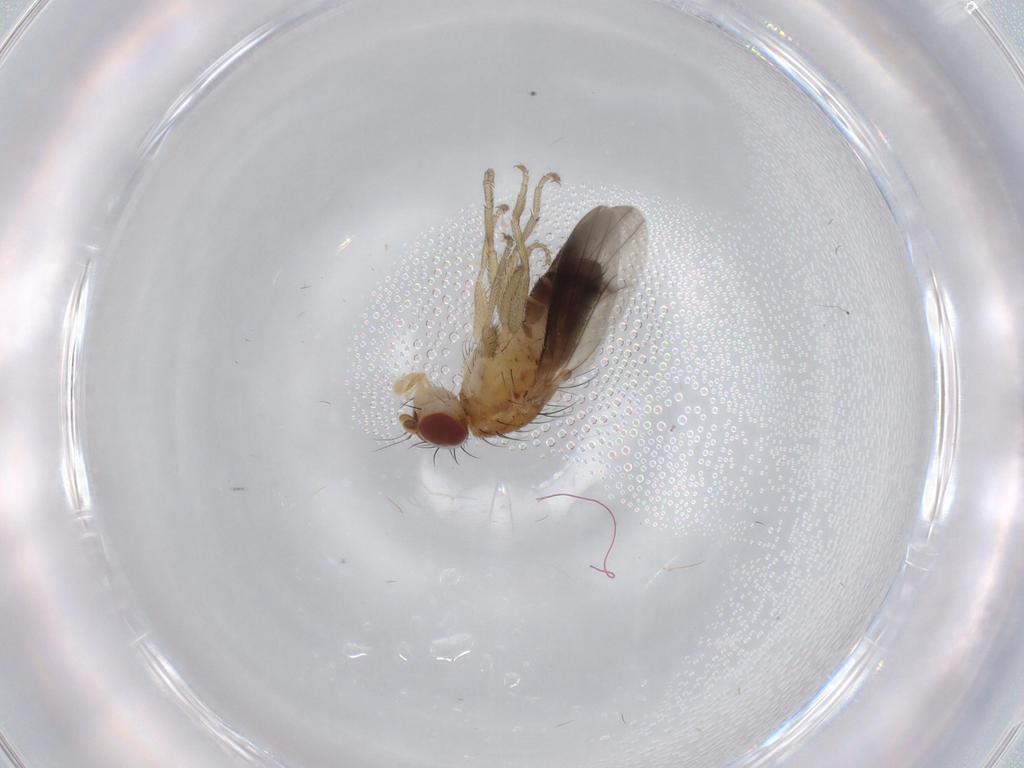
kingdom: Animalia
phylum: Arthropoda
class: Insecta
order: Diptera
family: Heleomyzidae
